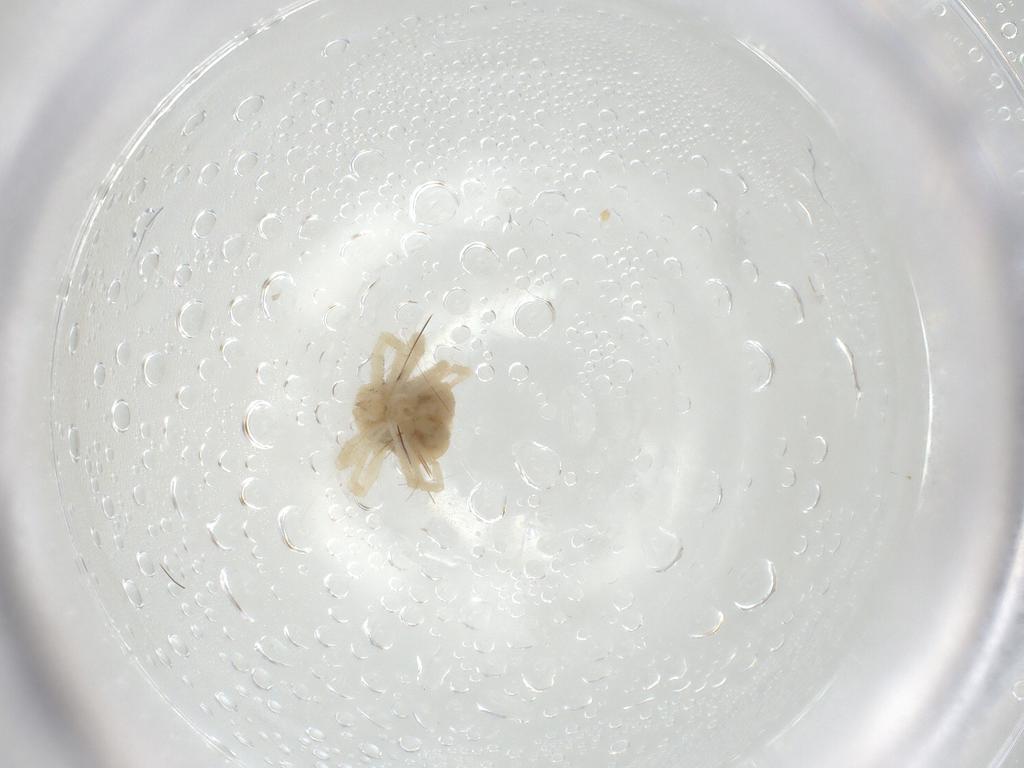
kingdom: Animalia
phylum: Arthropoda
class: Arachnida
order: Trombidiformes
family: Anystidae
